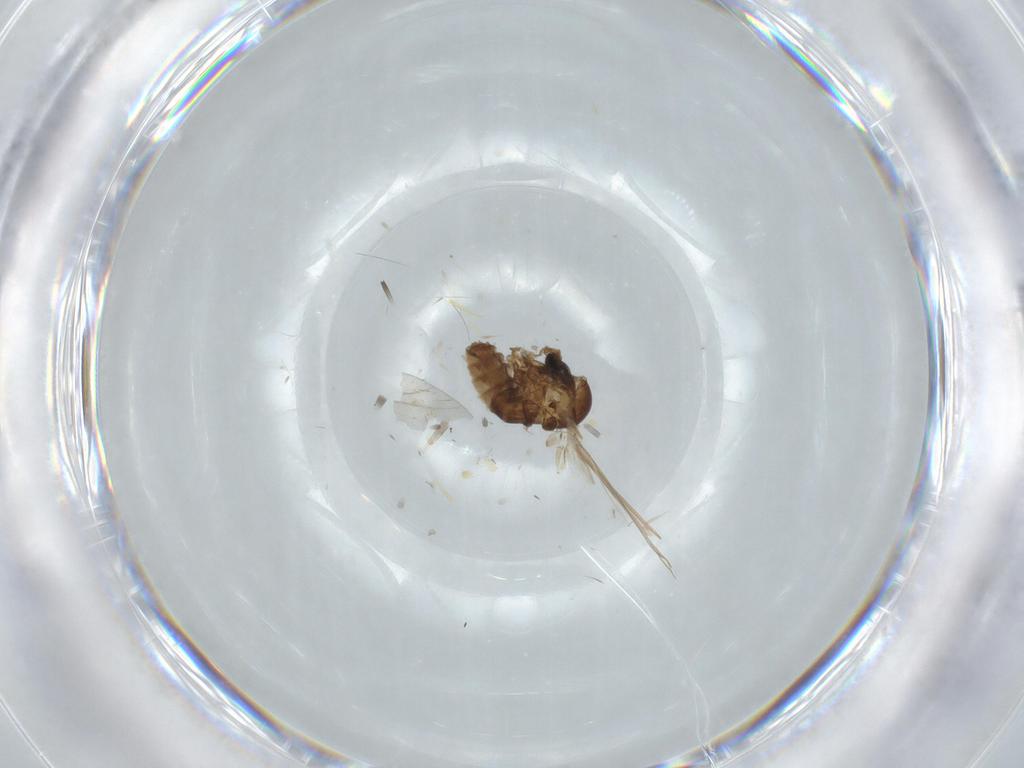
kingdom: Animalia
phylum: Arthropoda
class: Insecta
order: Diptera
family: Psychodidae
